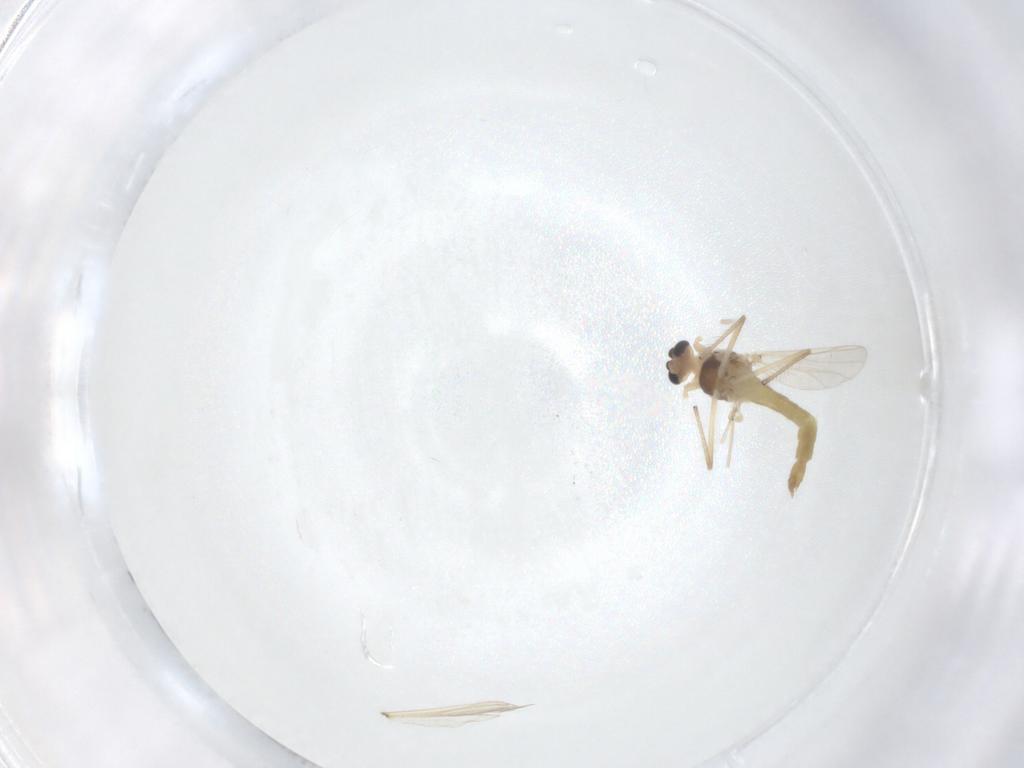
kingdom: Animalia
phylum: Arthropoda
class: Insecta
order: Diptera
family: Chironomidae
